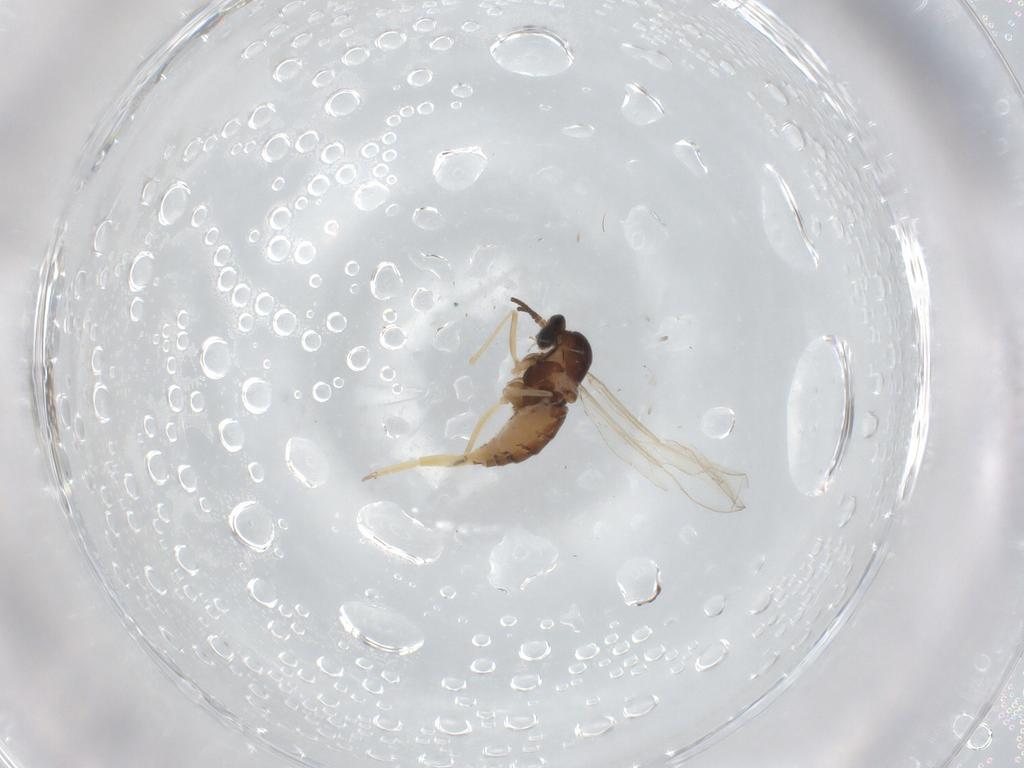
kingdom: Animalia
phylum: Arthropoda
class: Insecta
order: Diptera
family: Cecidomyiidae
